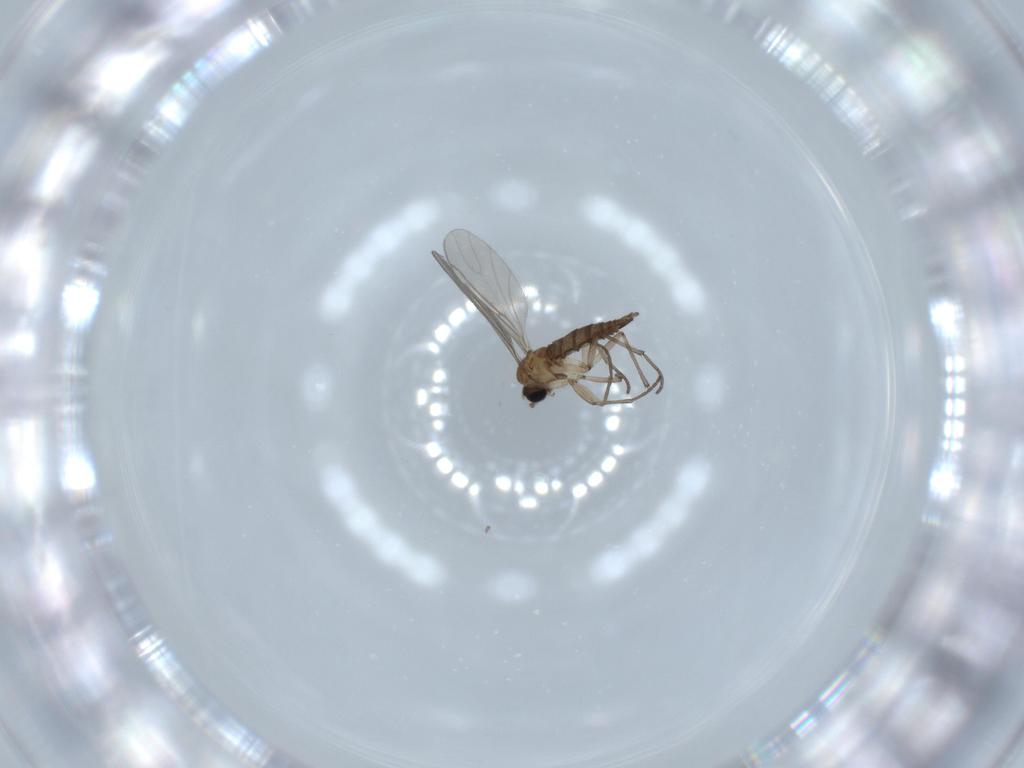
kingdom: Animalia
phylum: Arthropoda
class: Insecta
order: Diptera
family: Sciaridae
